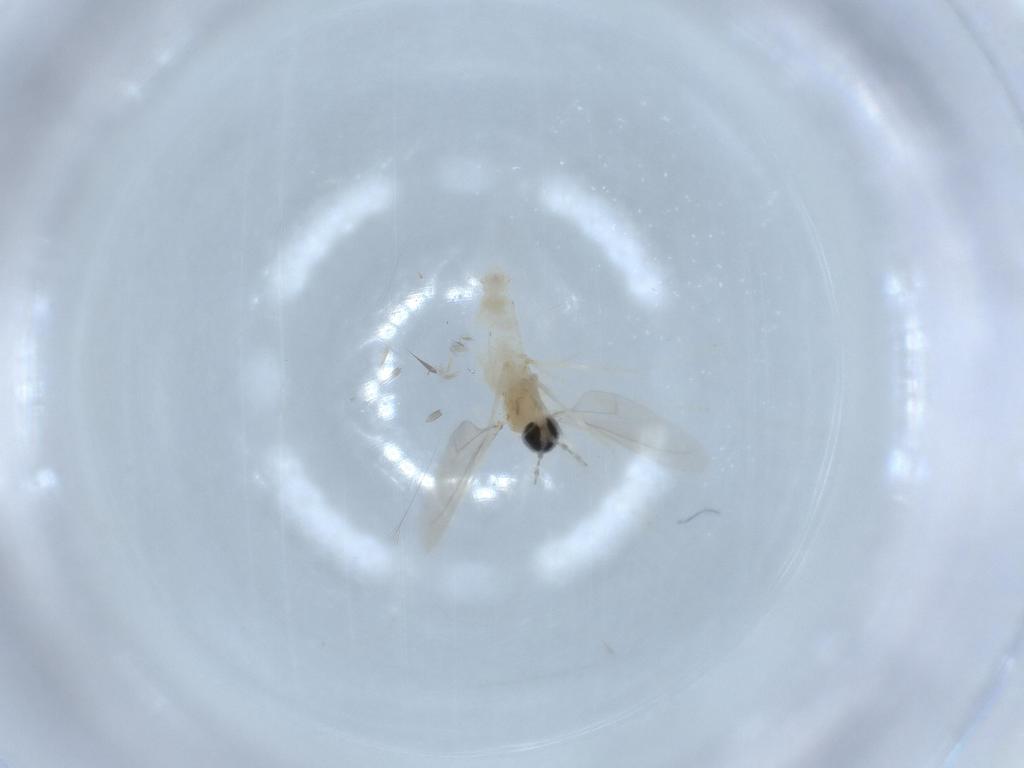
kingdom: Animalia
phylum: Arthropoda
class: Insecta
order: Diptera
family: Cecidomyiidae
